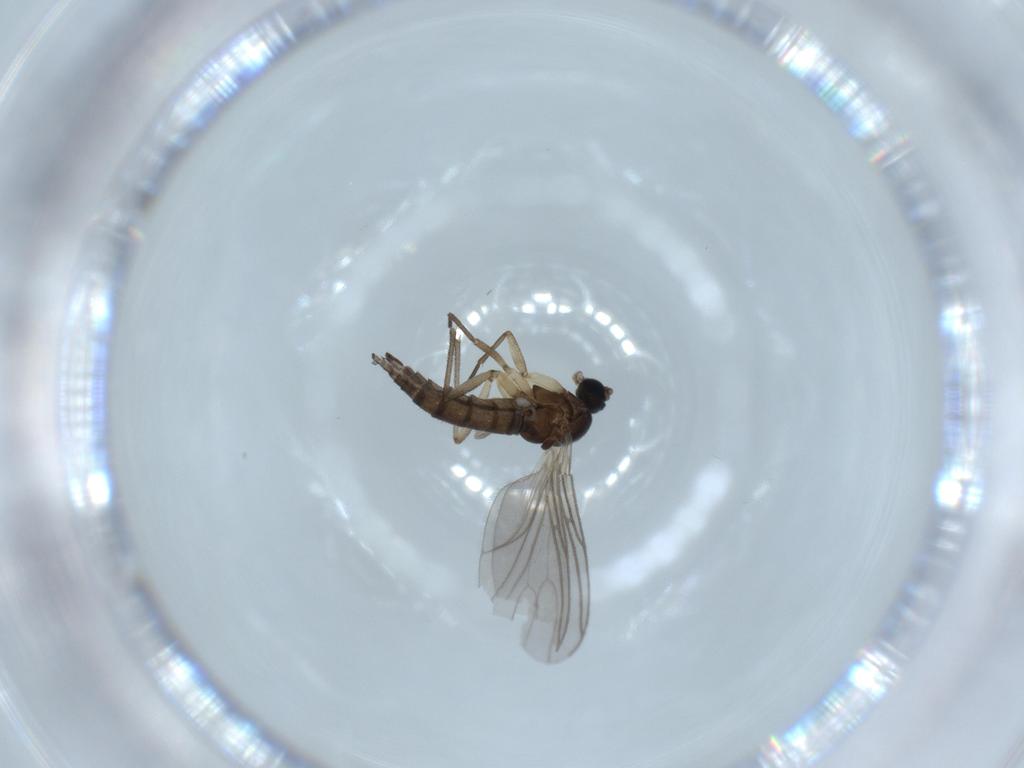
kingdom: Animalia
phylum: Arthropoda
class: Insecta
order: Diptera
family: Sciaridae
